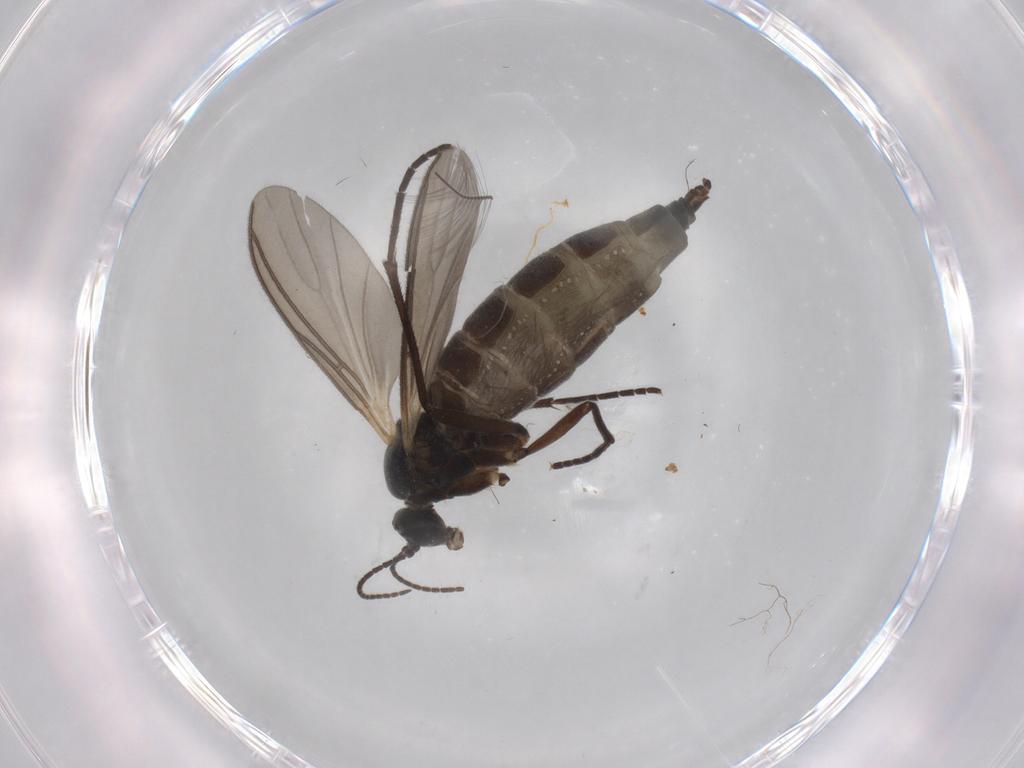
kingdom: Animalia
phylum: Arthropoda
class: Insecta
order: Diptera
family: Sciaridae
